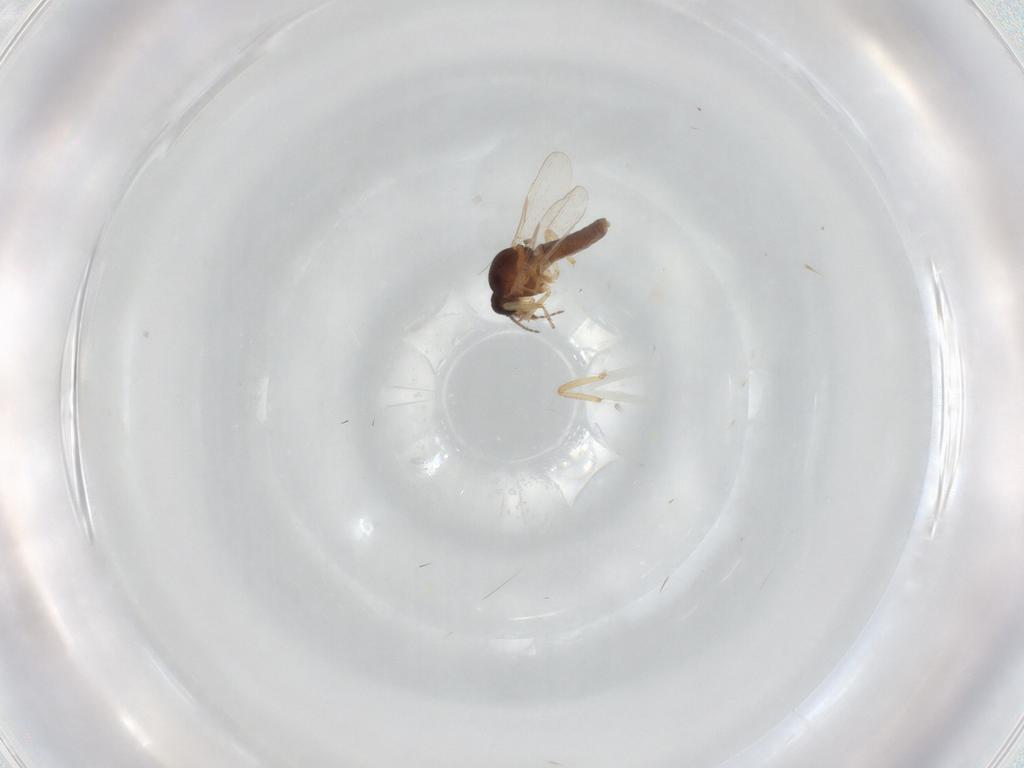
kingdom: Animalia
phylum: Arthropoda
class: Insecta
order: Diptera
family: Ceratopogonidae
